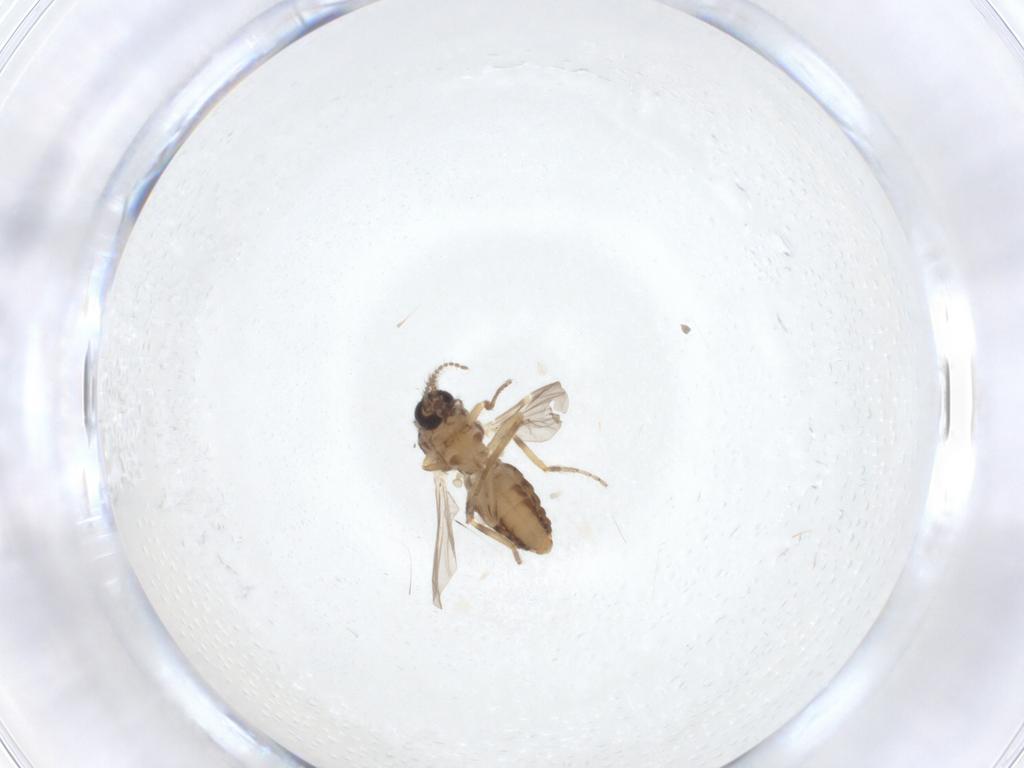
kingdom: Animalia
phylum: Arthropoda
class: Insecta
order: Diptera
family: Ceratopogonidae
